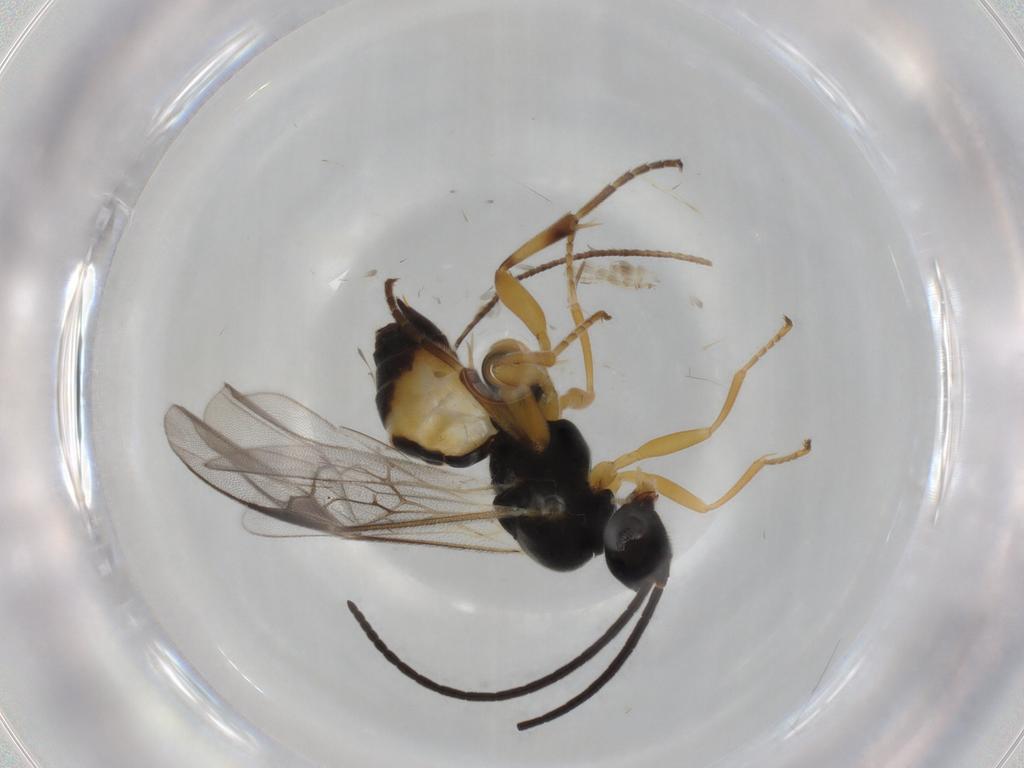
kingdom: Animalia
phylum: Arthropoda
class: Insecta
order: Hymenoptera
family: Braconidae
